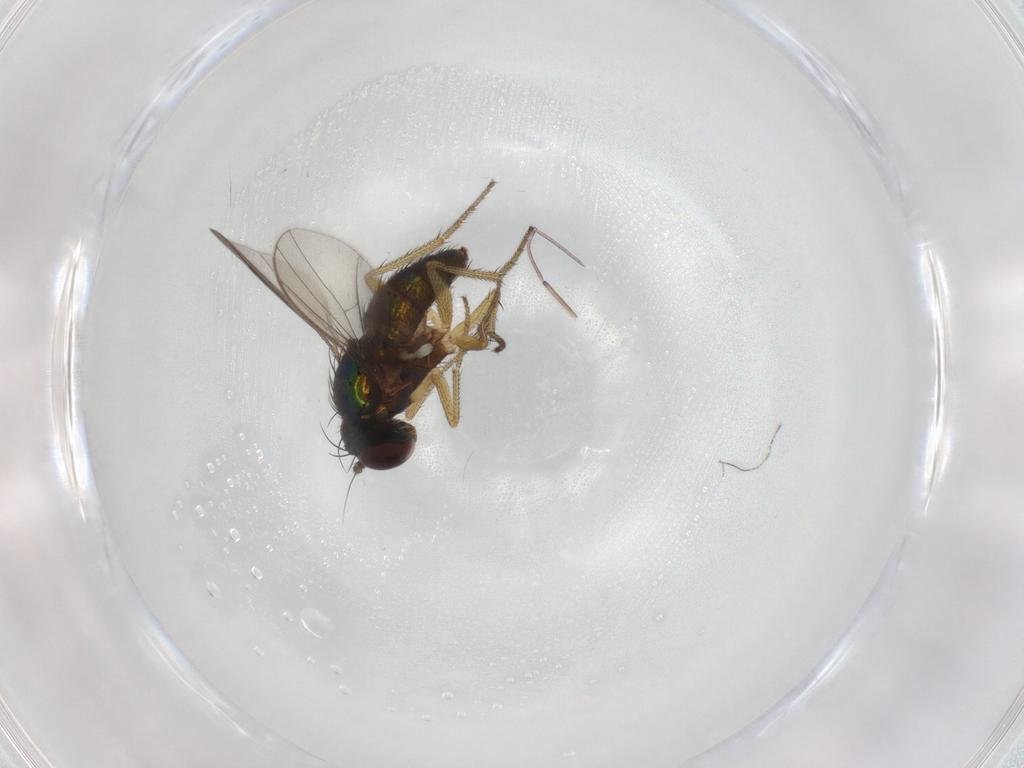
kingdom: Animalia
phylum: Arthropoda
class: Insecta
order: Diptera
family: Dolichopodidae
